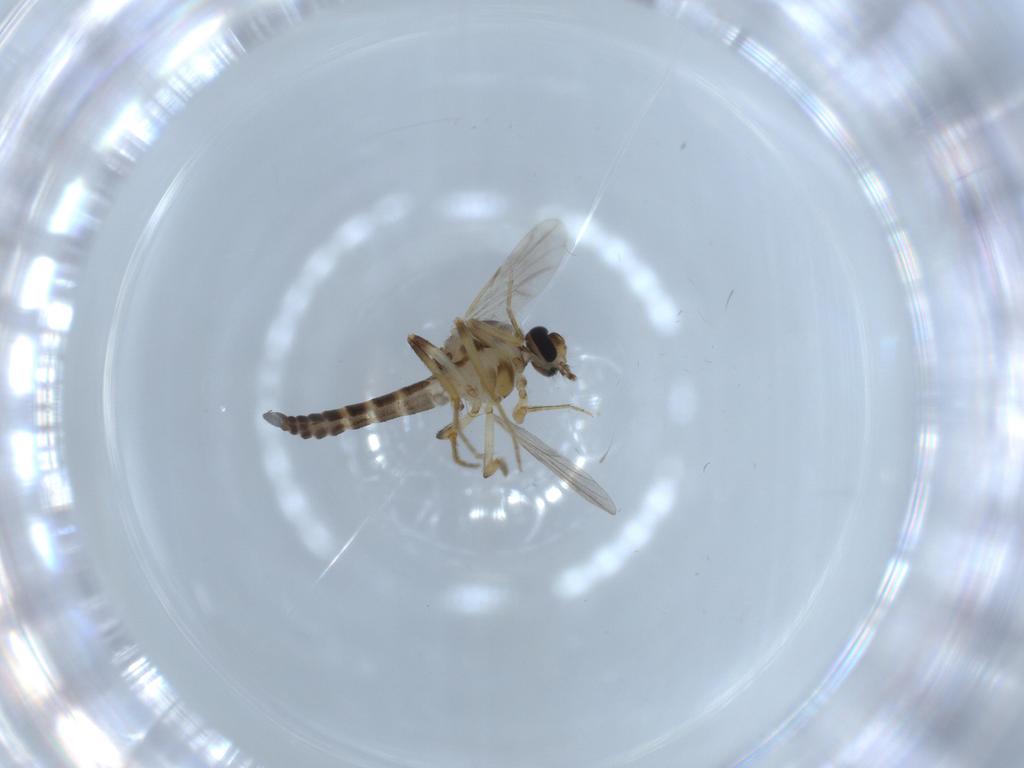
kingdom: Animalia
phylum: Arthropoda
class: Insecta
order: Diptera
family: Ceratopogonidae
